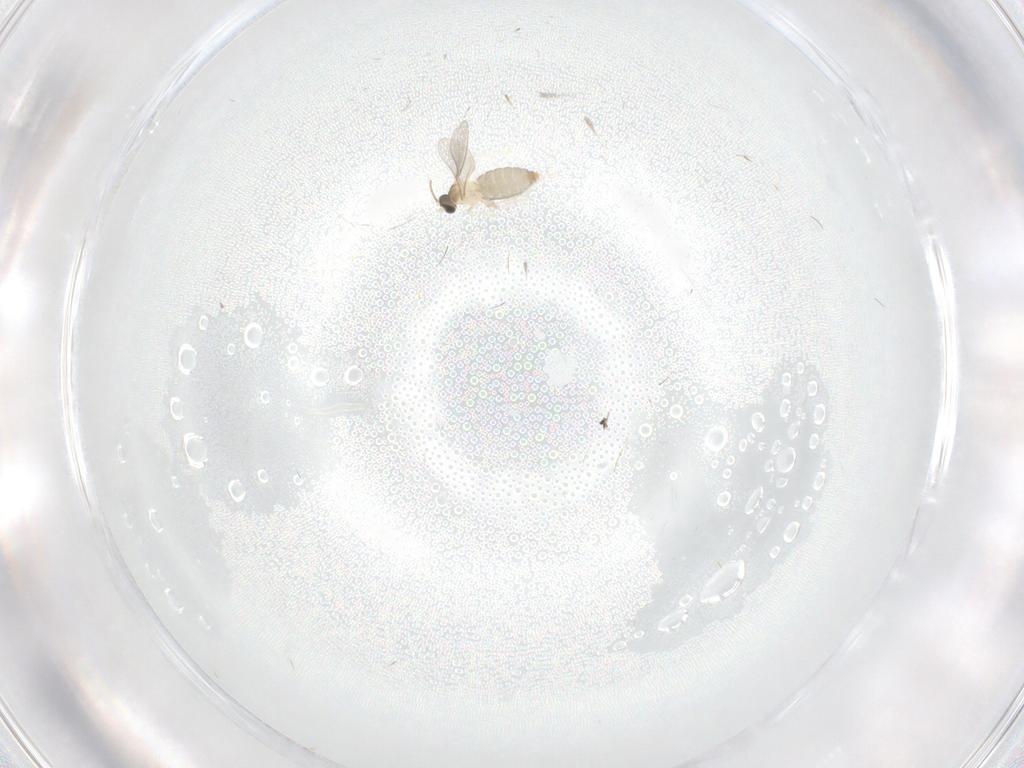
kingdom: Animalia
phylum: Arthropoda
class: Insecta
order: Diptera
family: Cecidomyiidae
